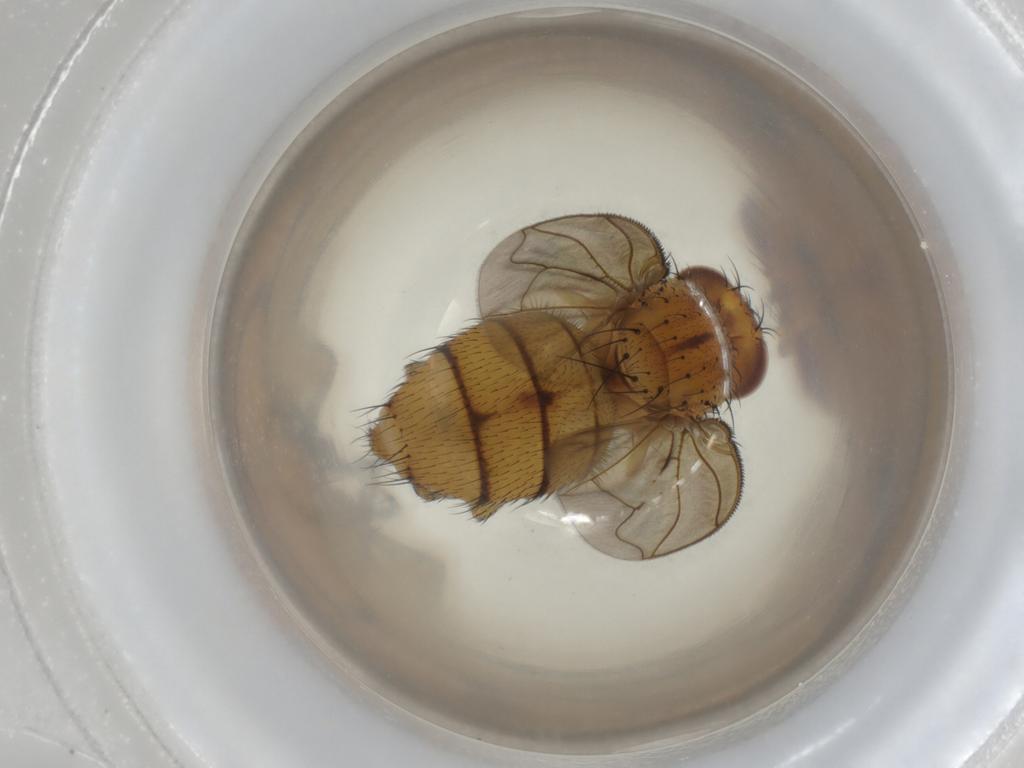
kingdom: Animalia
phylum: Arthropoda
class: Insecta
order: Diptera
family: Calliphoridae
